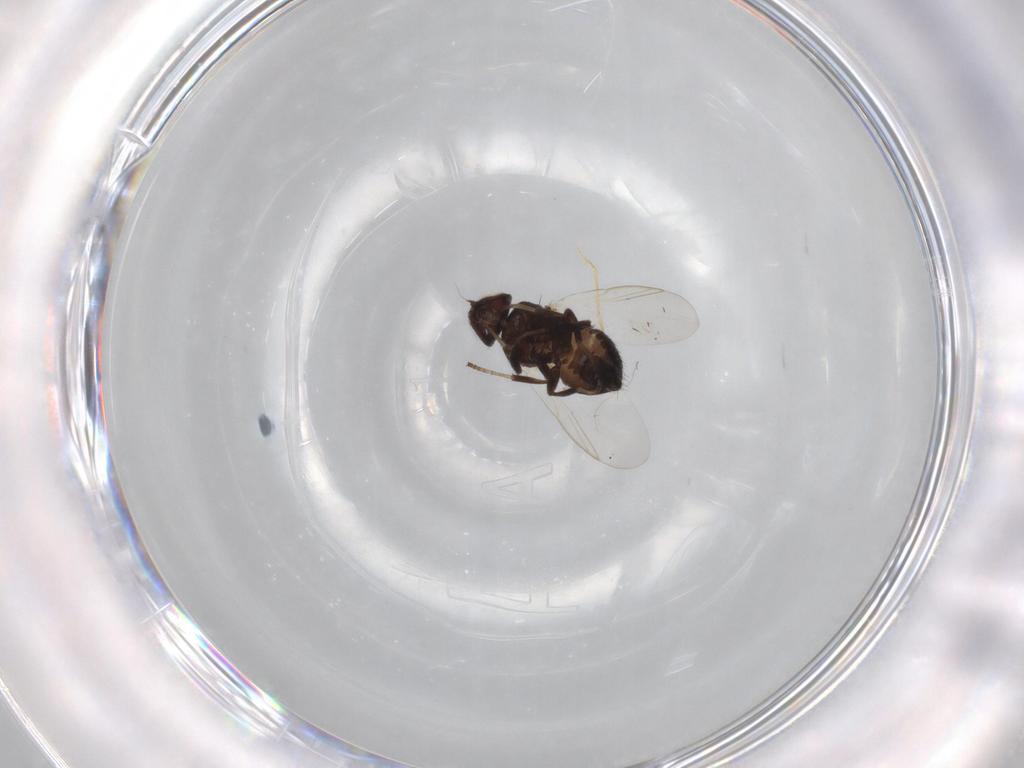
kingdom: Animalia
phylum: Arthropoda
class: Insecta
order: Diptera
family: Agromyzidae
